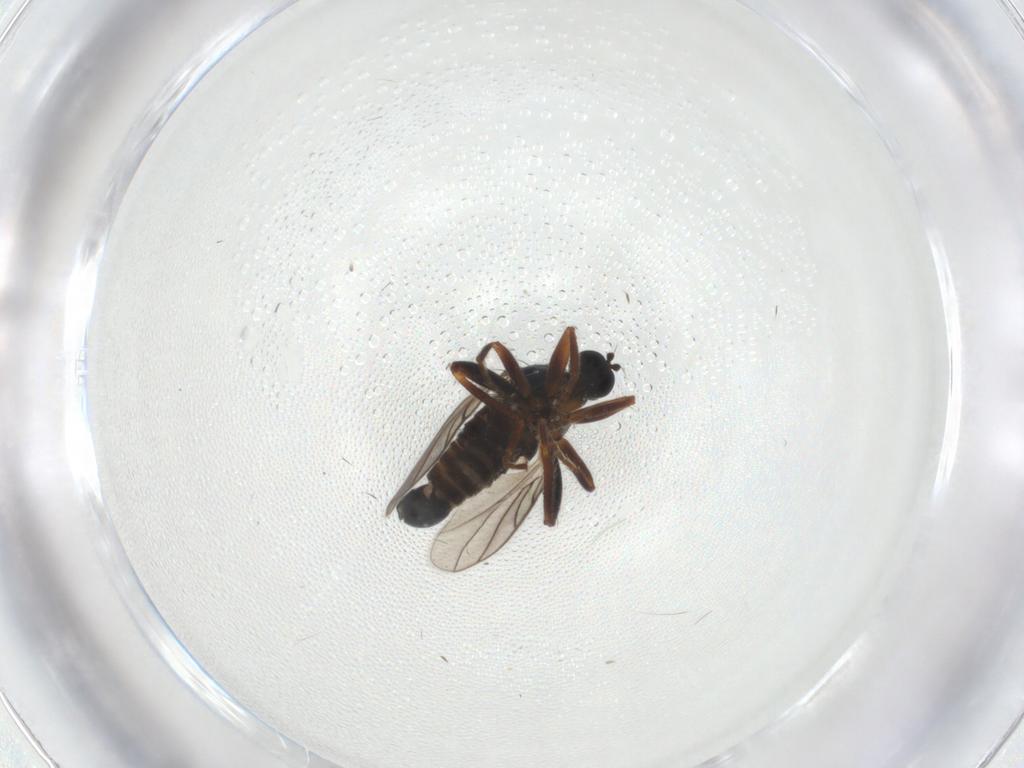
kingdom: Animalia
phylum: Arthropoda
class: Insecta
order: Diptera
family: Hybotidae
